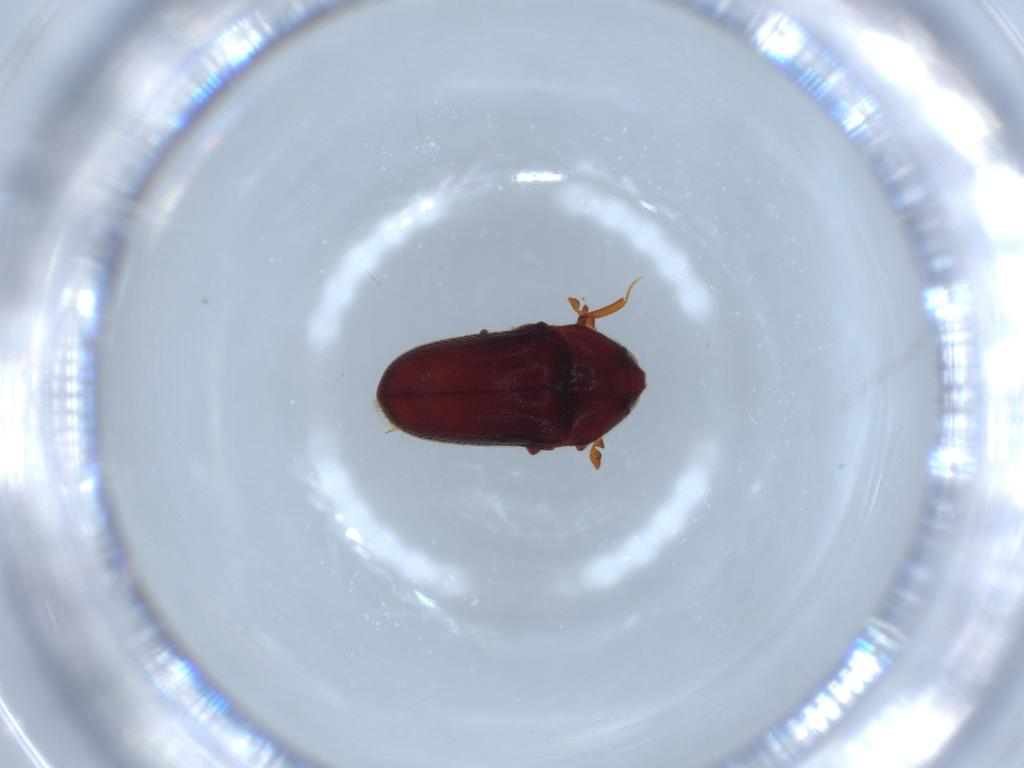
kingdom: Animalia
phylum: Arthropoda
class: Insecta
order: Coleoptera
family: Throscidae
